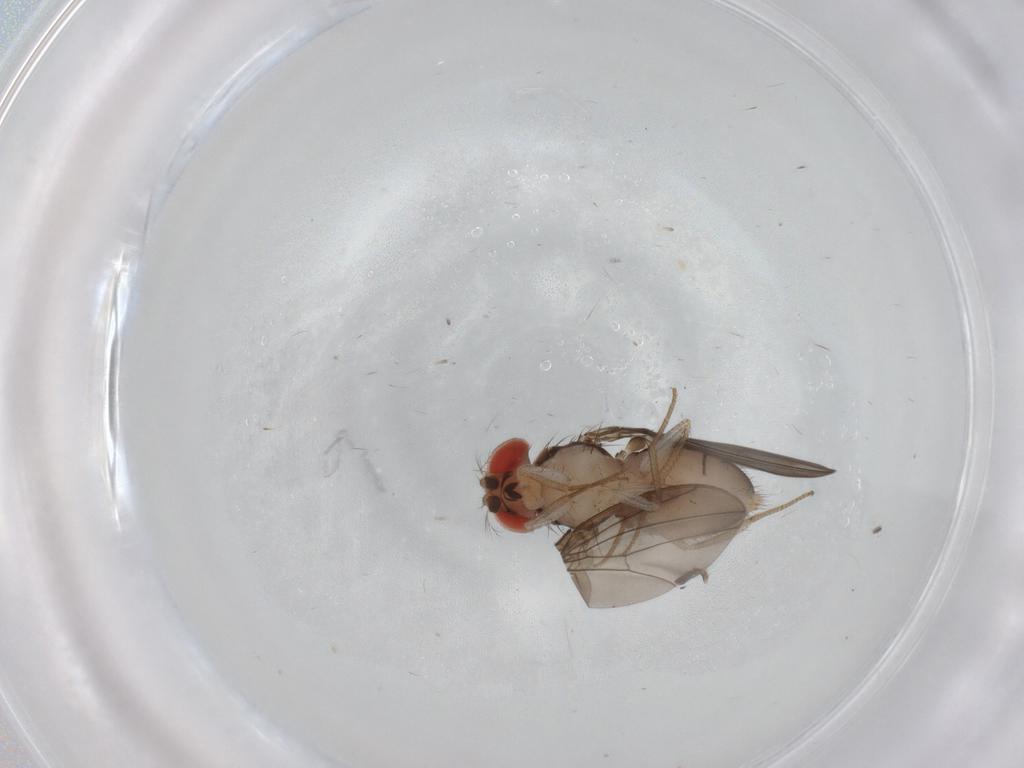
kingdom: Animalia
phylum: Arthropoda
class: Insecta
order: Diptera
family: Drosophilidae
